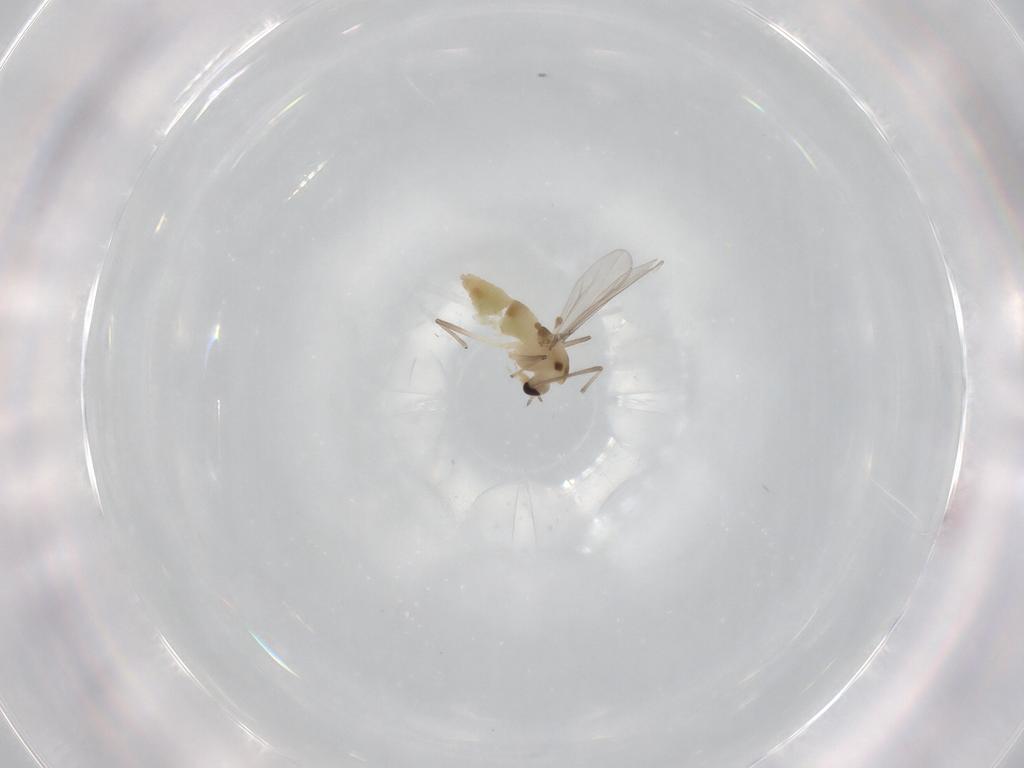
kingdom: Animalia
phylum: Arthropoda
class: Insecta
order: Diptera
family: Chironomidae
